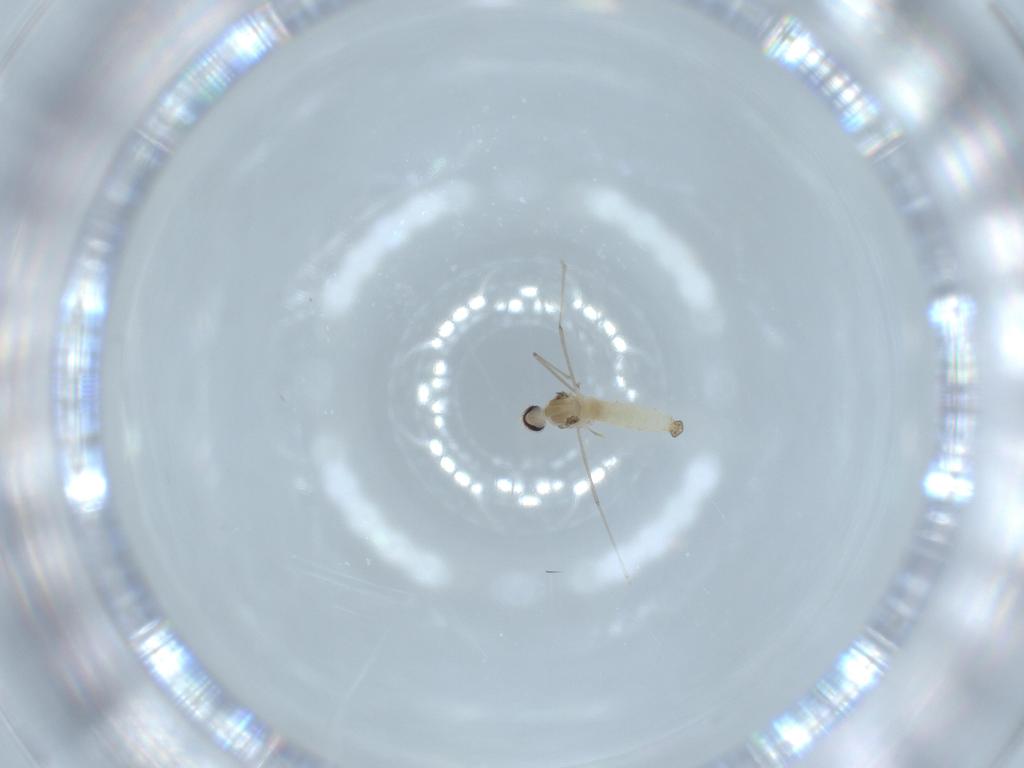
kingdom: Animalia
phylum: Arthropoda
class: Insecta
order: Diptera
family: Cecidomyiidae
